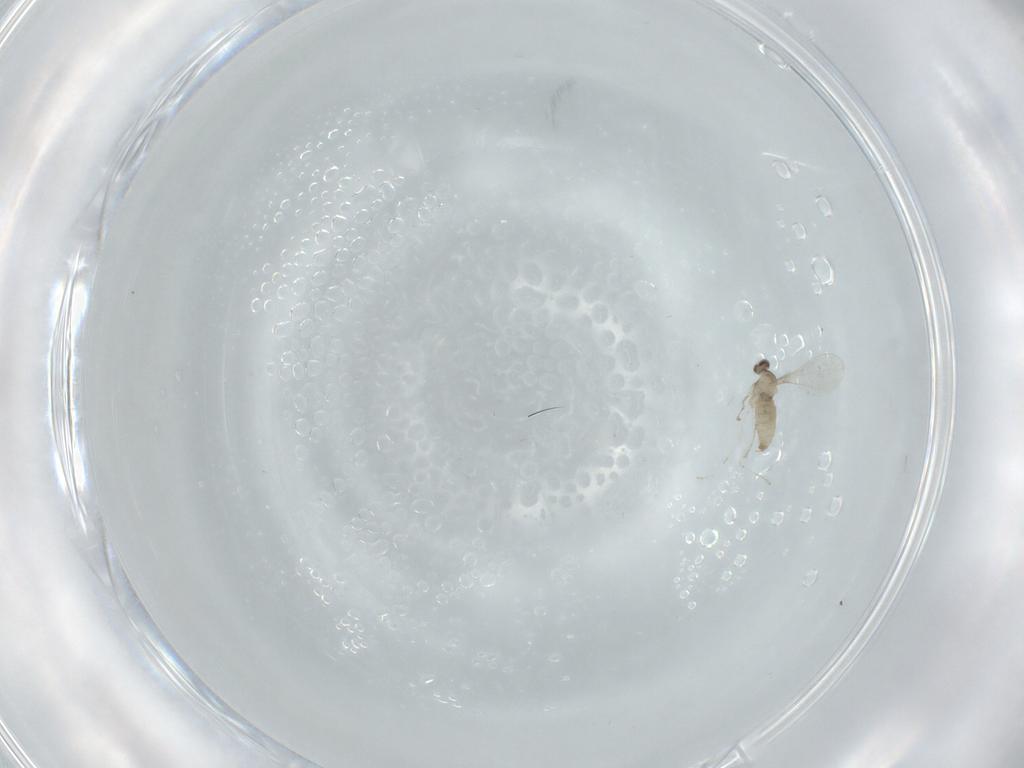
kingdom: Animalia
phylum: Arthropoda
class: Insecta
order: Diptera
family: Cecidomyiidae
